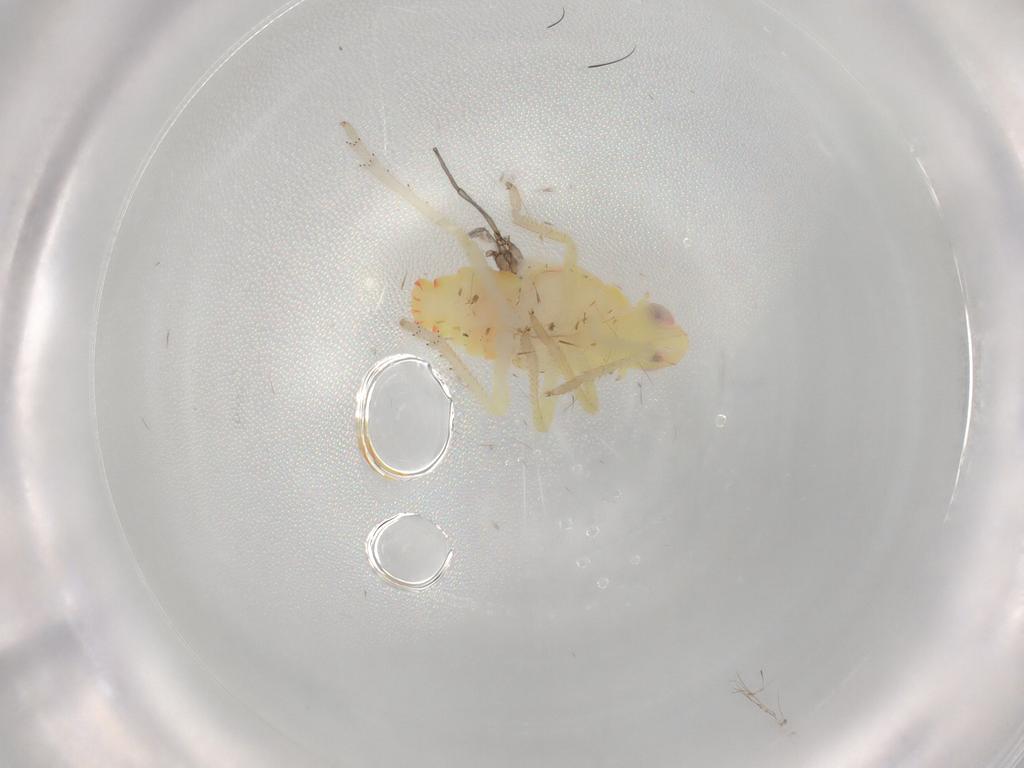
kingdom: Animalia
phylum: Arthropoda
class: Insecta
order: Hemiptera
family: Tropiduchidae
